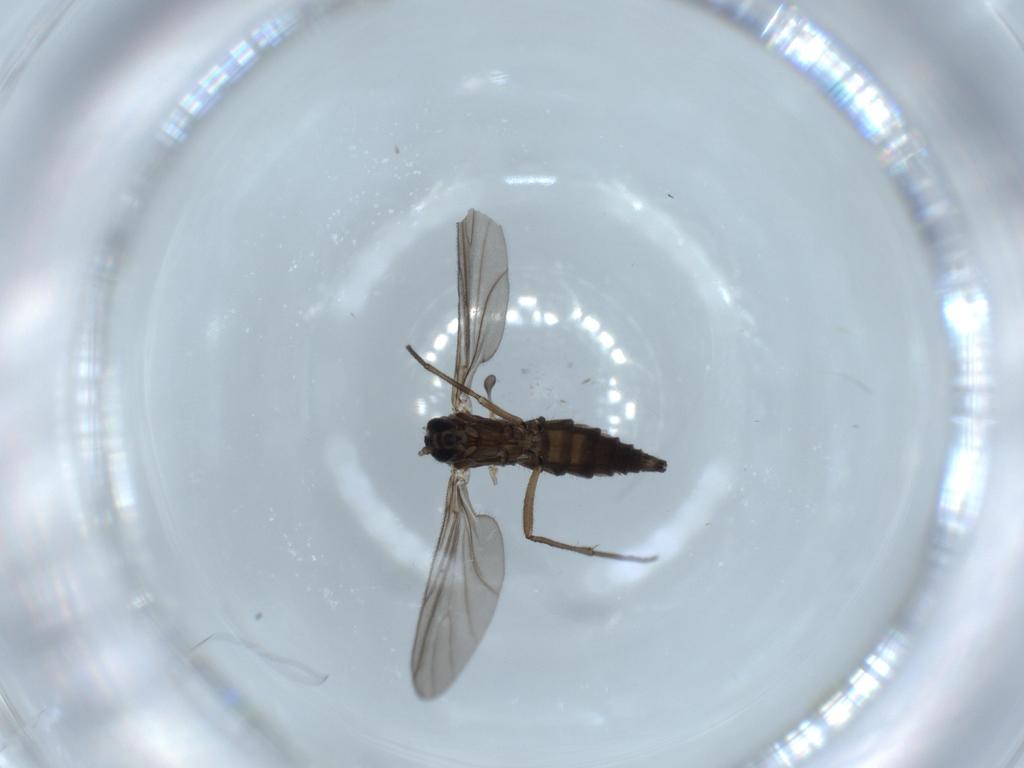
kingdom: Animalia
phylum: Arthropoda
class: Insecta
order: Diptera
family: Sciaridae
